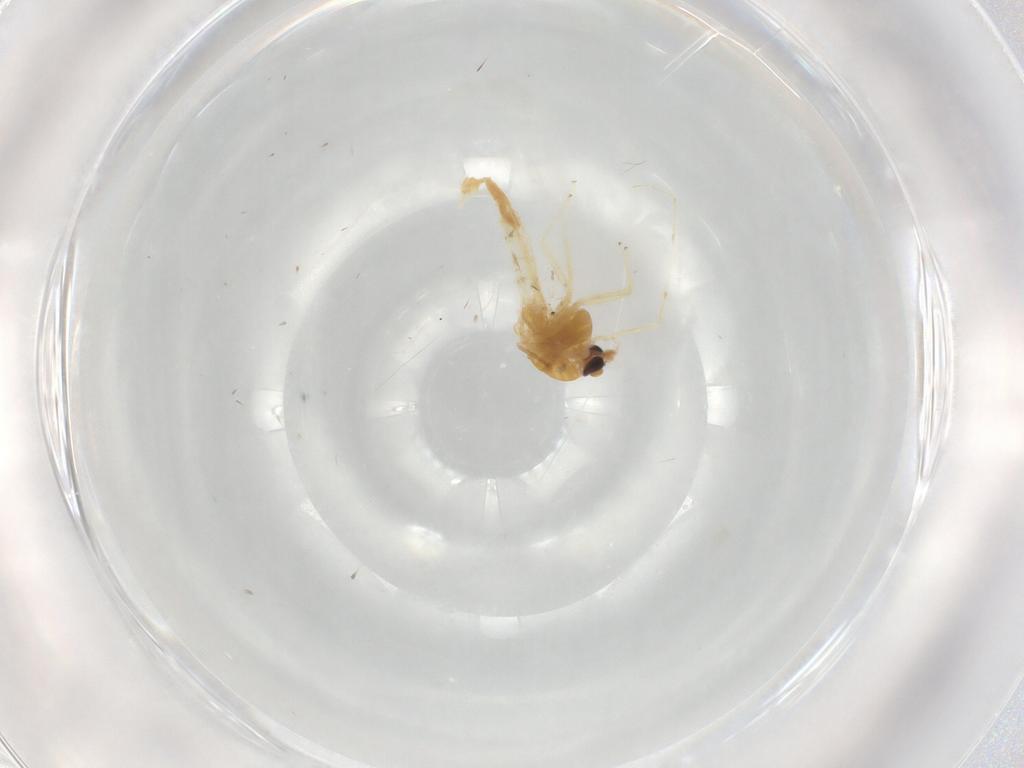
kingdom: Animalia
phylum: Arthropoda
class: Insecta
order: Diptera
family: Chironomidae
